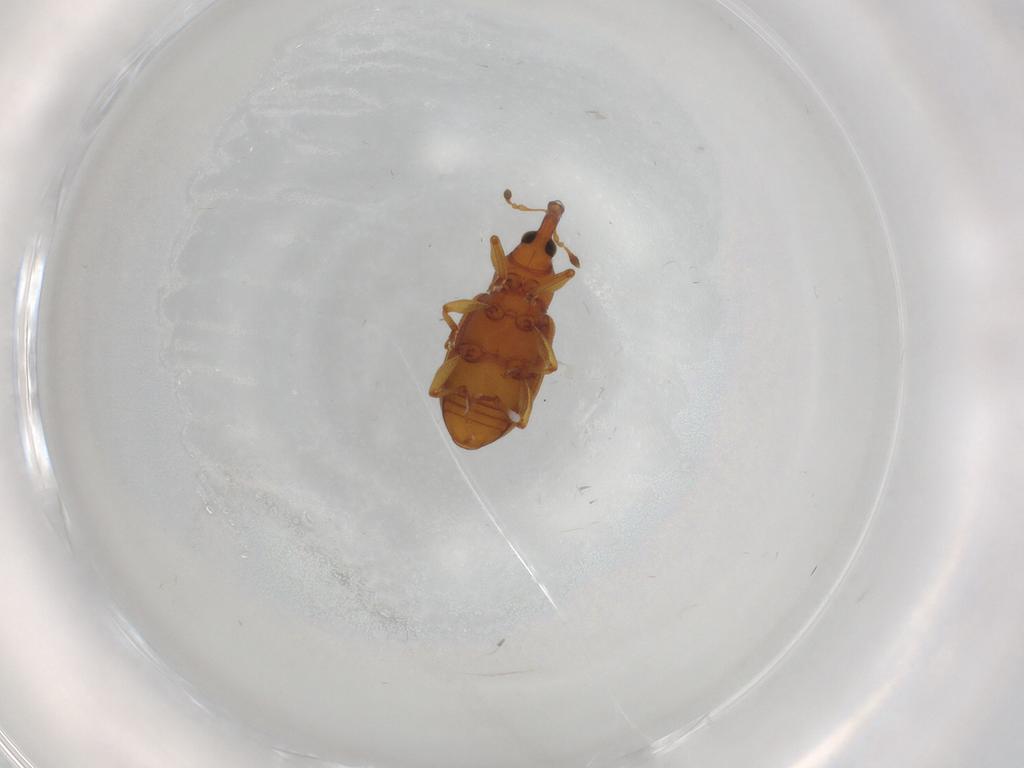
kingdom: Animalia
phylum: Arthropoda
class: Insecta
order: Coleoptera
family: Curculionidae
